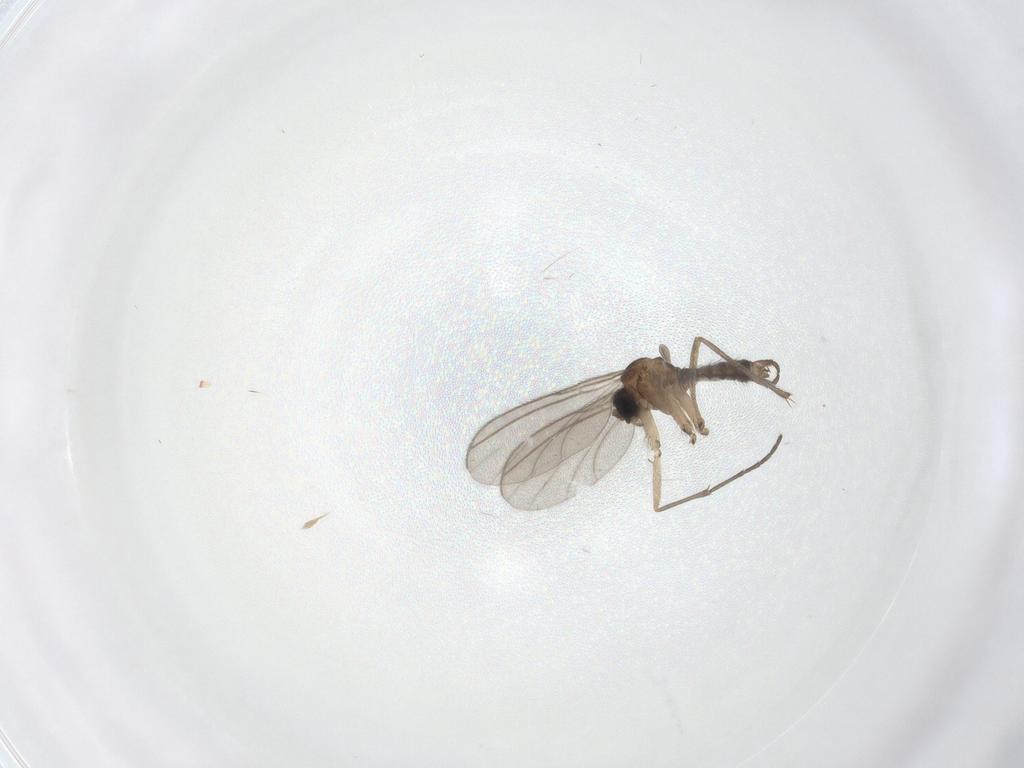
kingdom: Animalia
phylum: Arthropoda
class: Insecta
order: Diptera
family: Sciaridae
